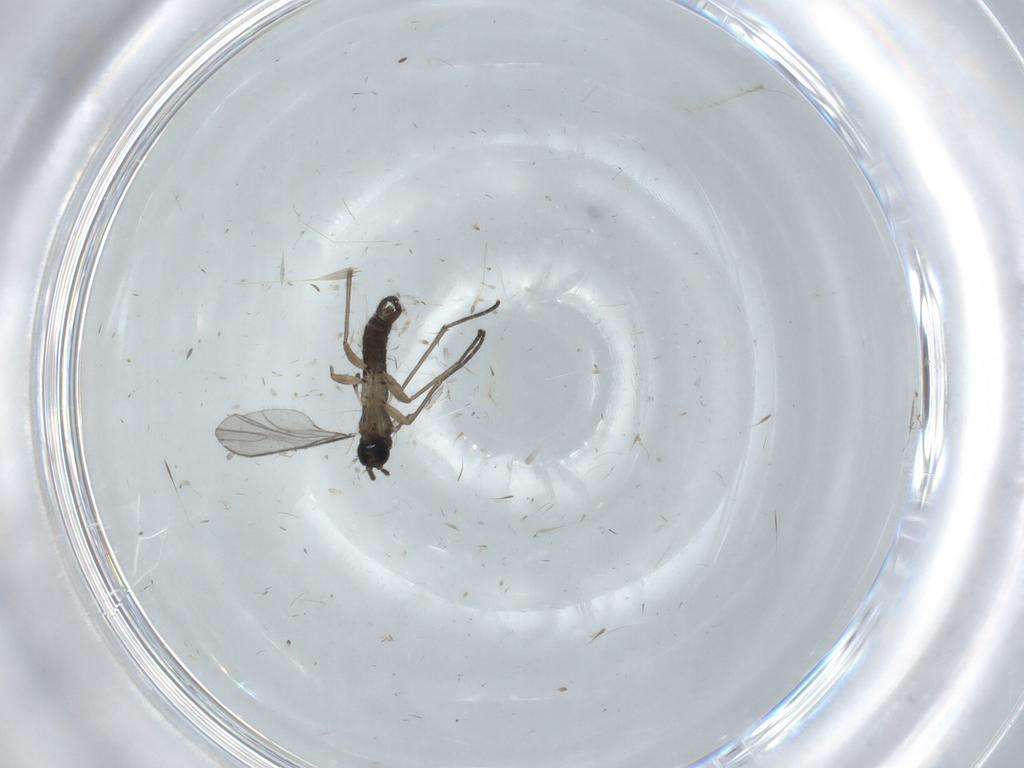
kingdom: Animalia
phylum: Arthropoda
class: Insecta
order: Diptera
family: Sciaridae
